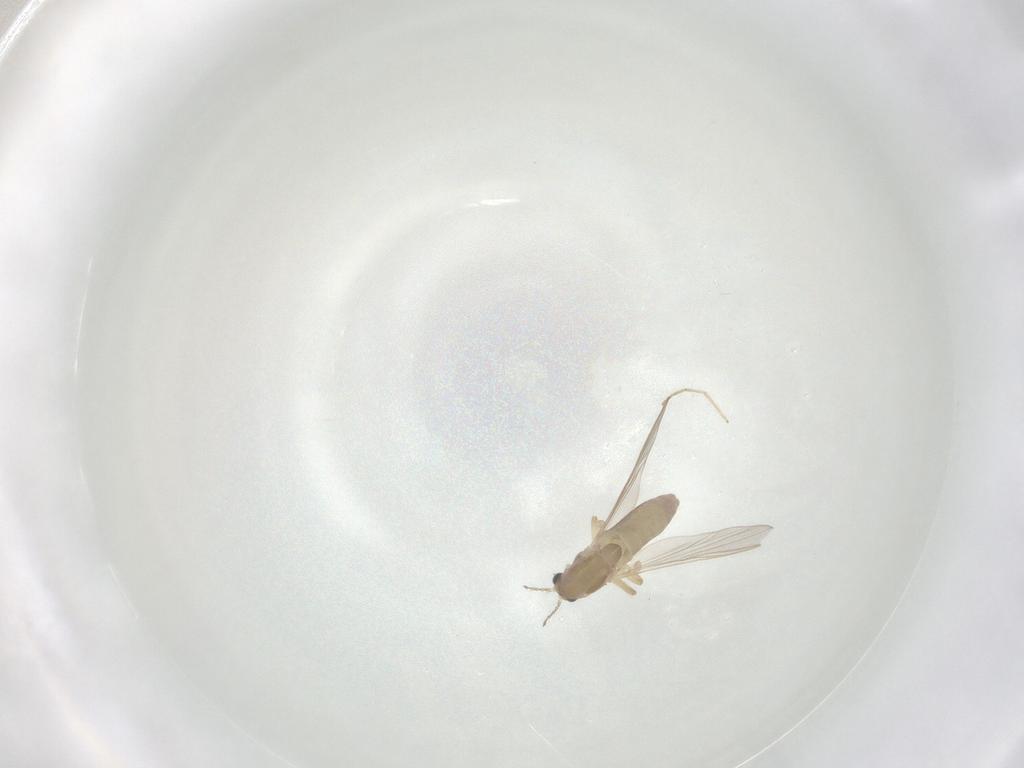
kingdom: Animalia
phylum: Arthropoda
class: Insecta
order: Diptera
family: Chironomidae
